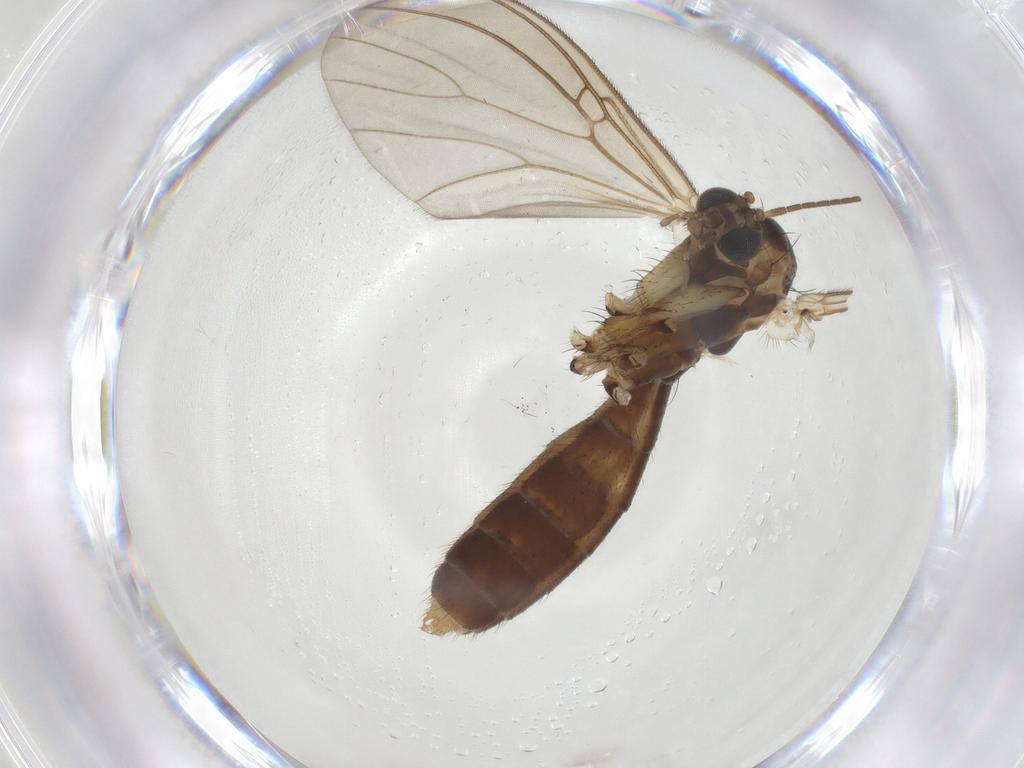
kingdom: Animalia
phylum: Arthropoda
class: Insecta
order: Diptera
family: Mycetophilidae
